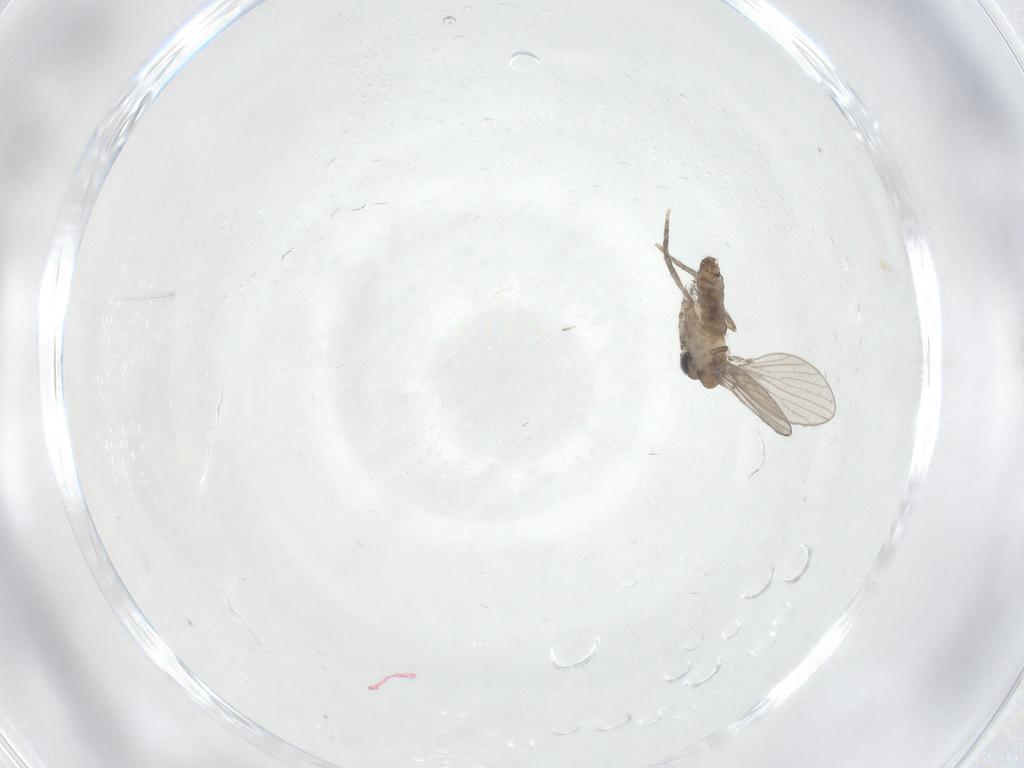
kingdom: Animalia
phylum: Arthropoda
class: Insecta
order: Diptera
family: Psychodidae
